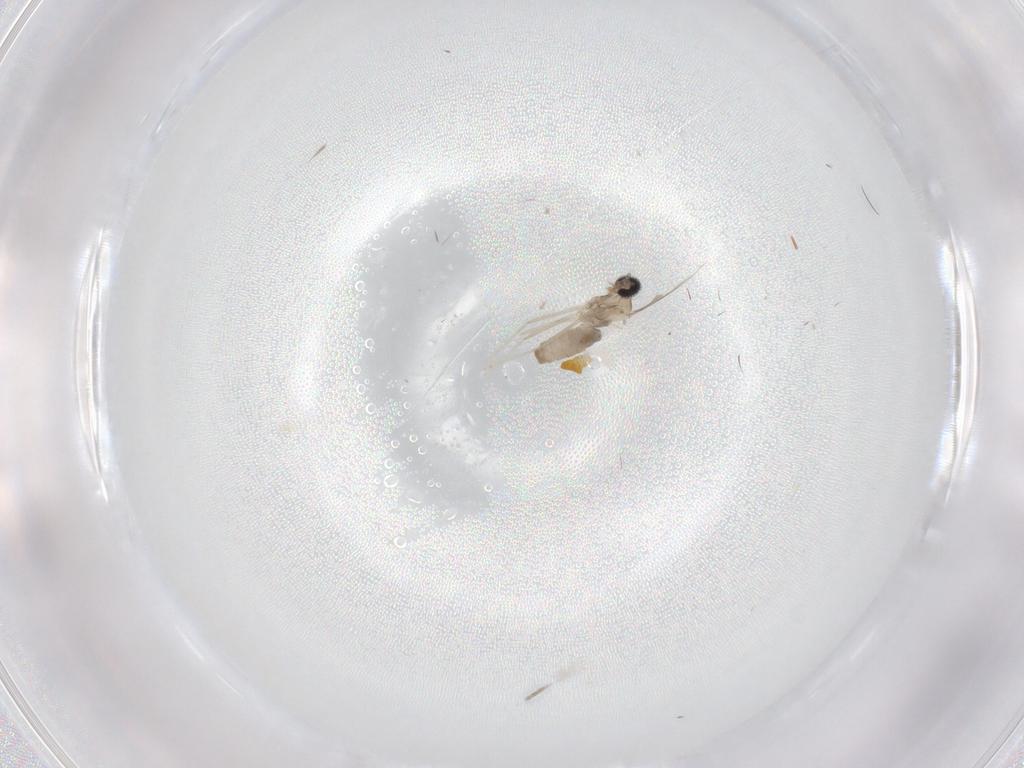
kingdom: Animalia
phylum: Arthropoda
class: Insecta
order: Diptera
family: Cecidomyiidae
